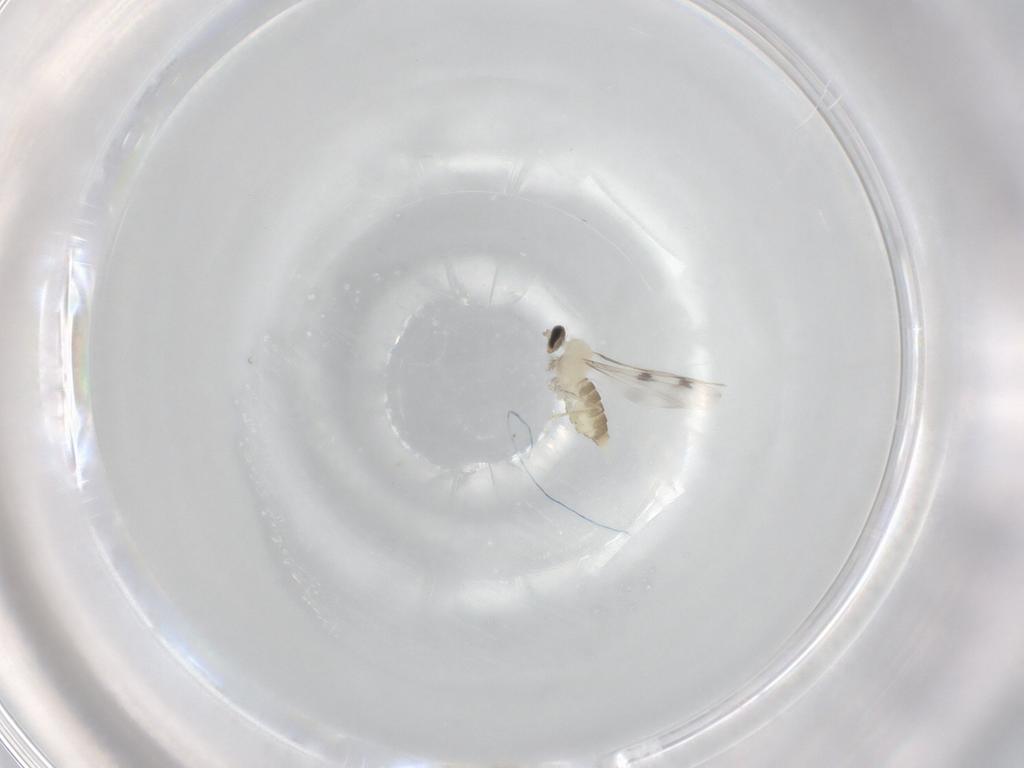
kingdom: Animalia
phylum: Arthropoda
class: Insecta
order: Diptera
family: Cecidomyiidae
